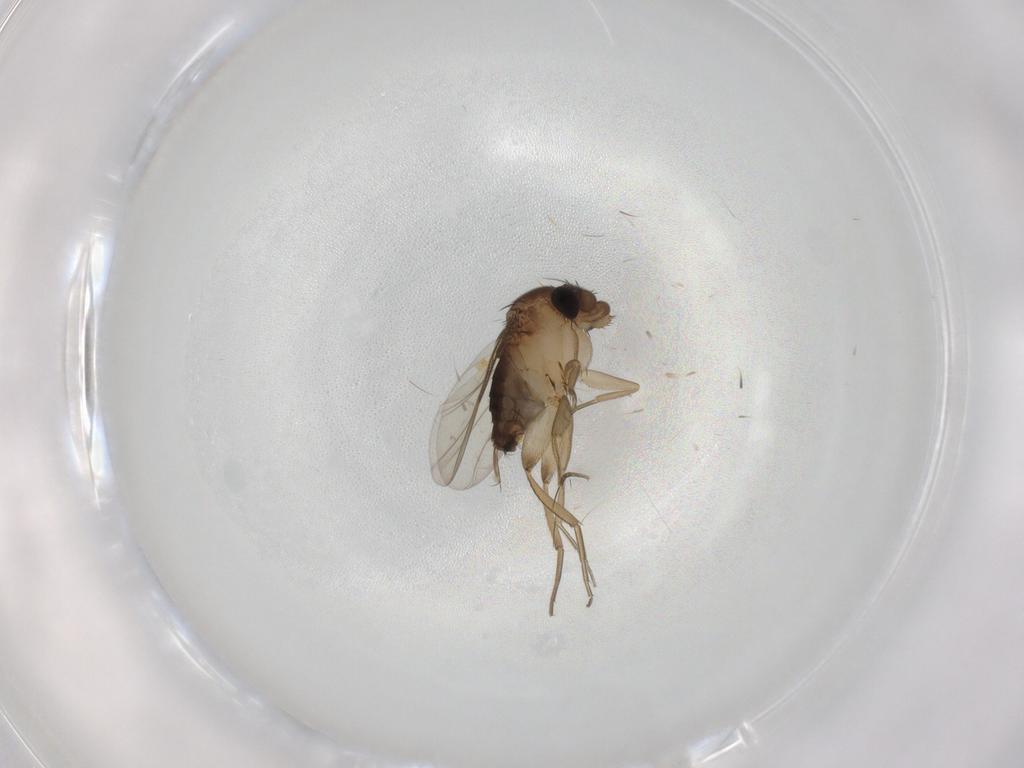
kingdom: Animalia
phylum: Arthropoda
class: Insecta
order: Diptera
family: Phoridae
